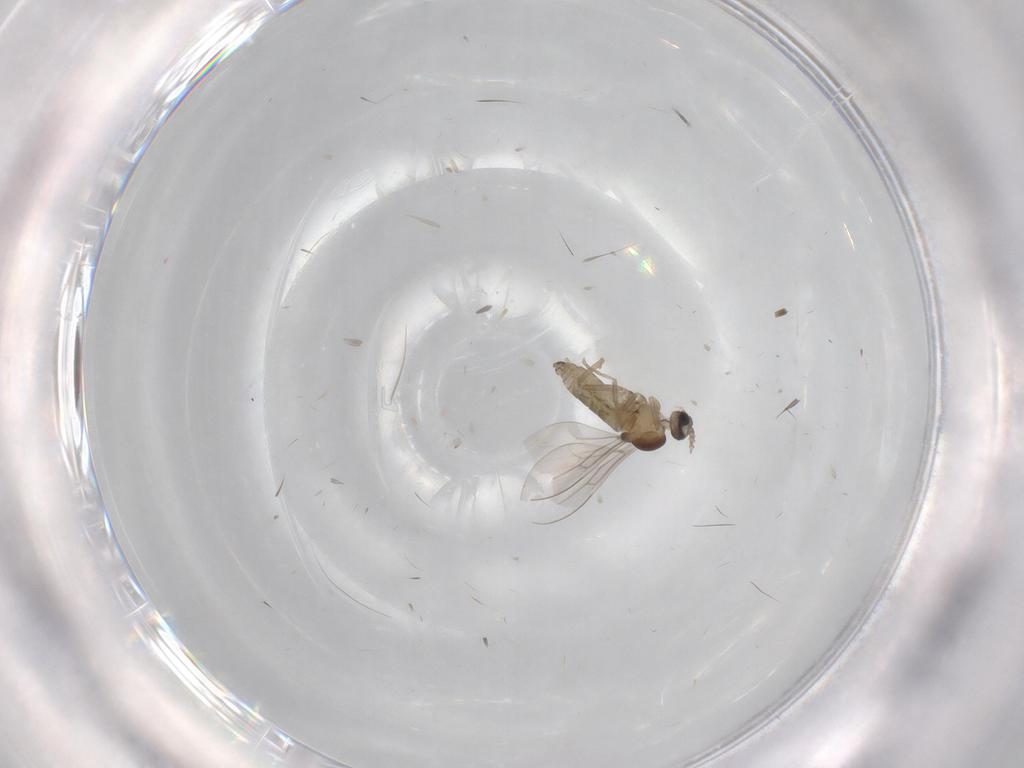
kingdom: Animalia
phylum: Arthropoda
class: Insecta
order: Diptera
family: Cecidomyiidae
